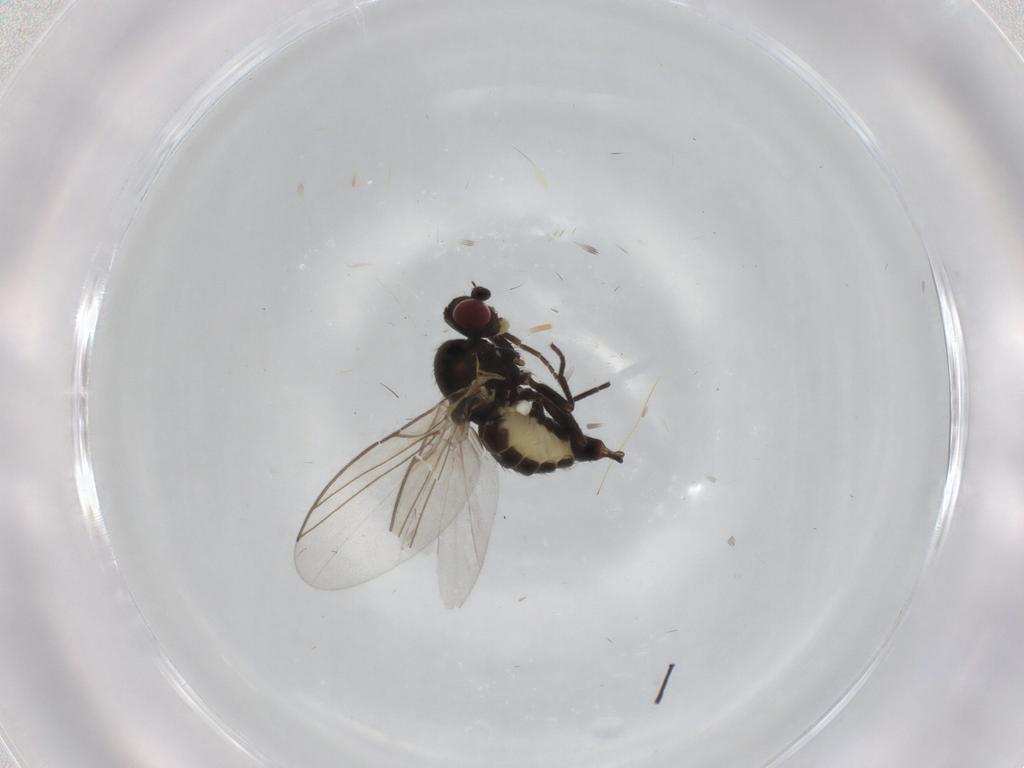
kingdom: Animalia
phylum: Arthropoda
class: Insecta
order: Diptera
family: Agromyzidae
